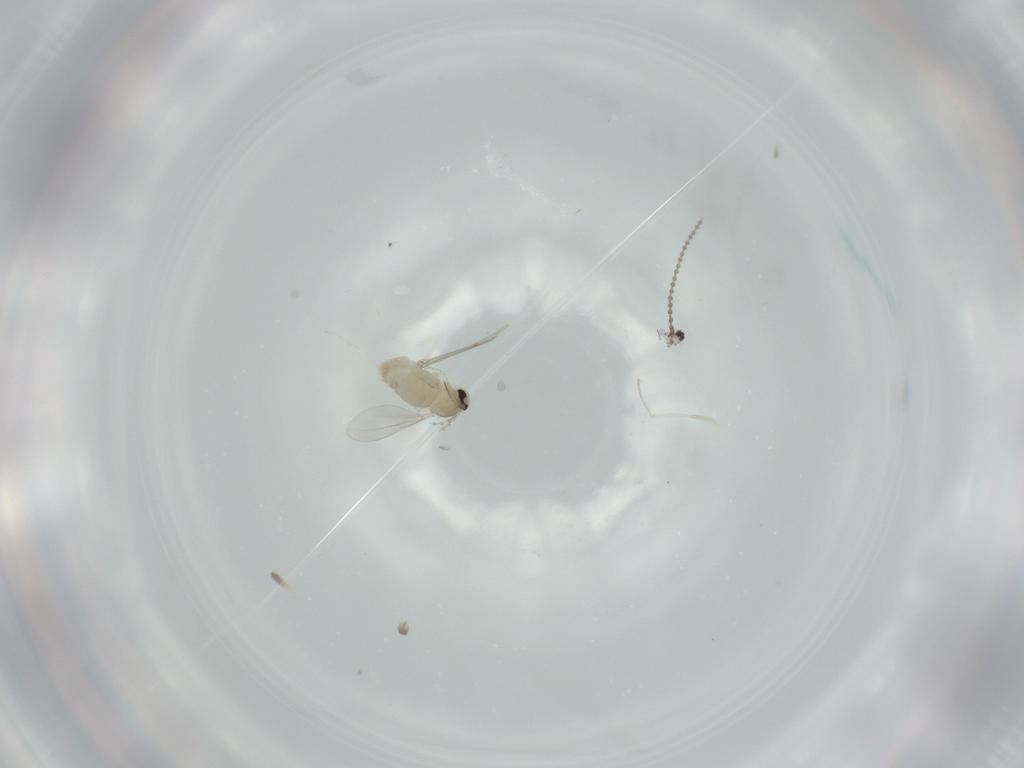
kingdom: Animalia
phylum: Arthropoda
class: Insecta
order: Diptera
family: Cecidomyiidae
